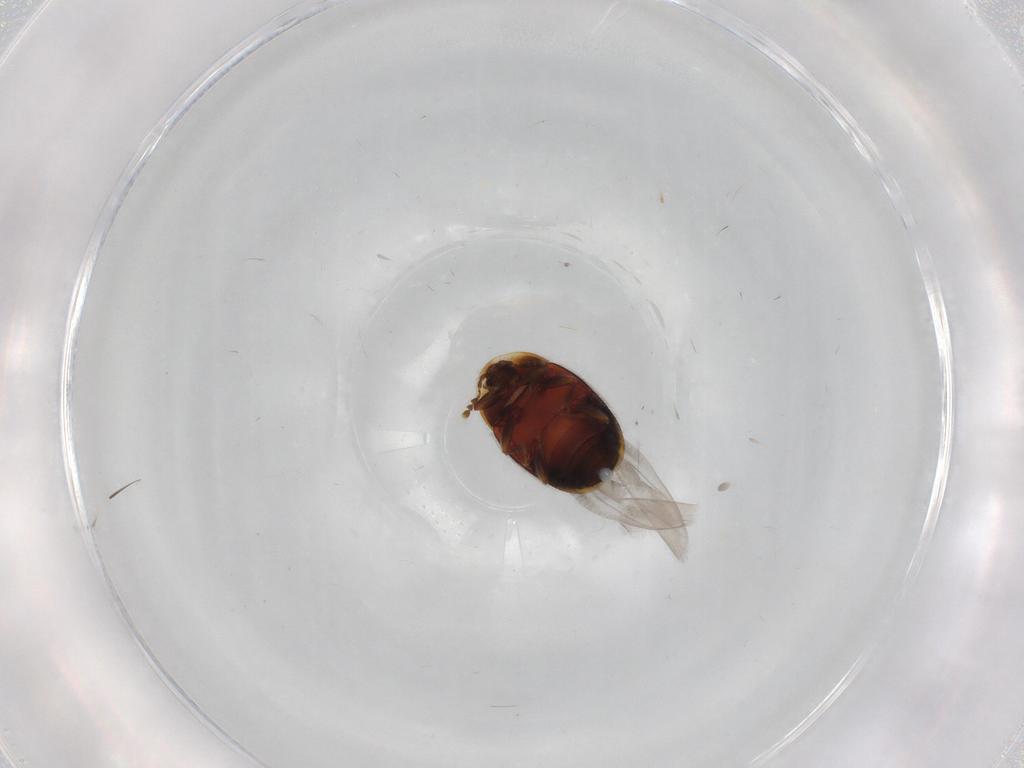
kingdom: Animalia
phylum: Arthropoda
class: Insecta
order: Coleoptera
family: Corylophidae
